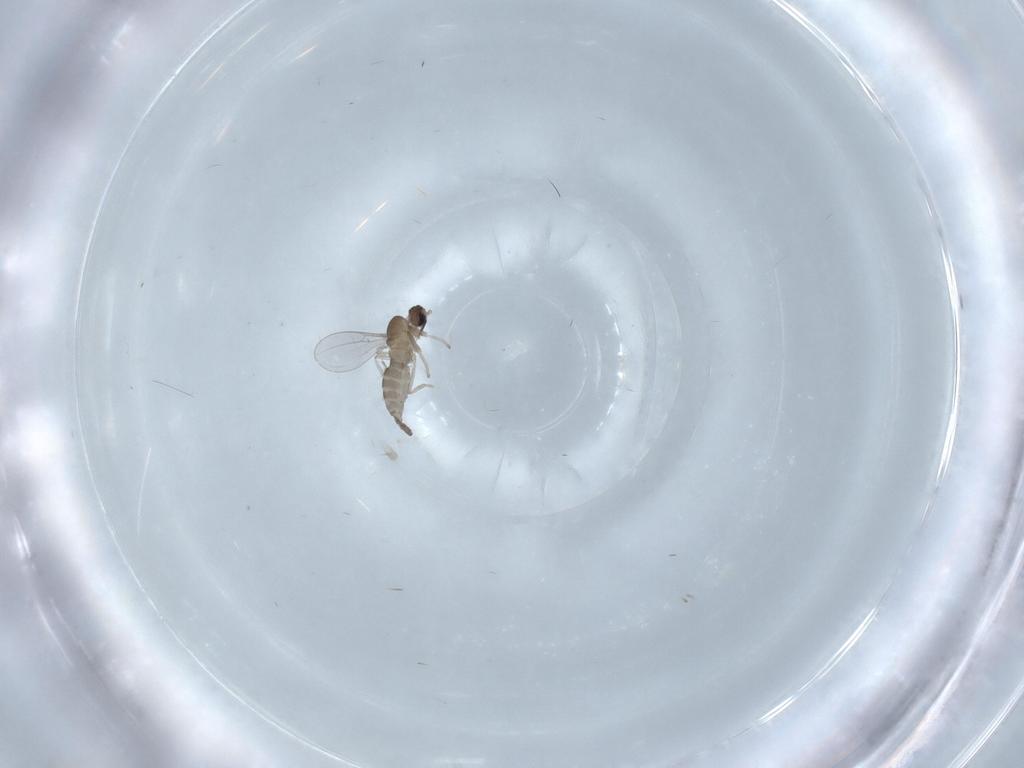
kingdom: Animalia
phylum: Arthropoda
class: Insecta
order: Diptera
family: Cecidomyiidae
